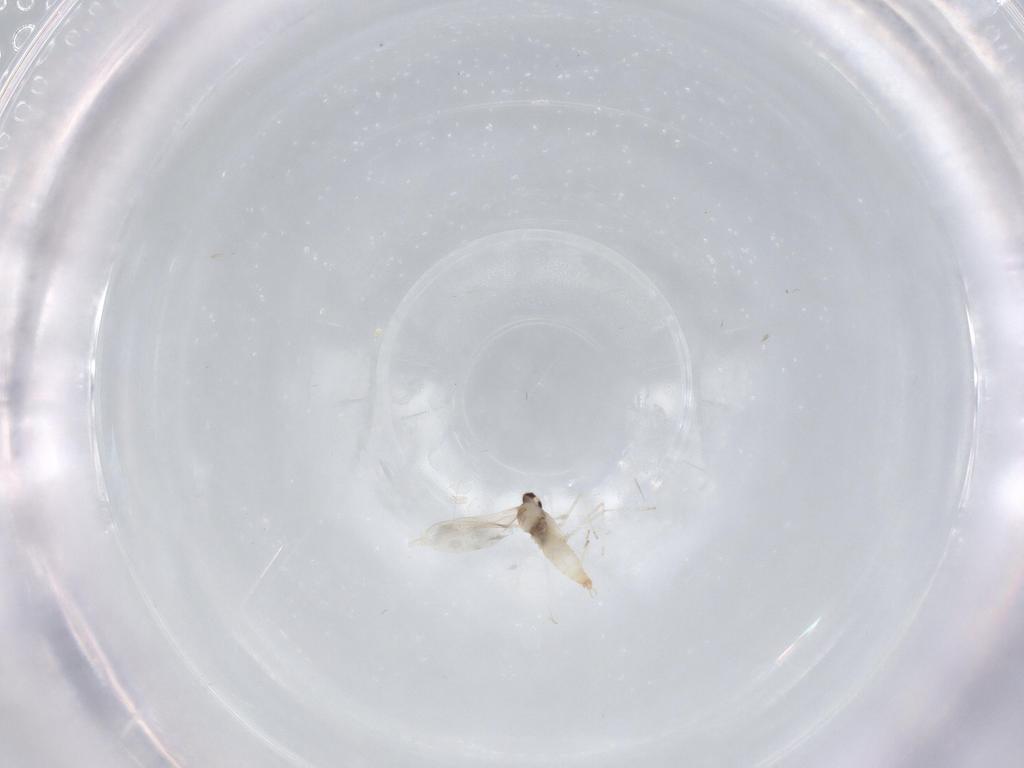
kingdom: Animalia
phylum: Arthropoda
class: Insecta
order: Diptera
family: Cecidomyiidae
